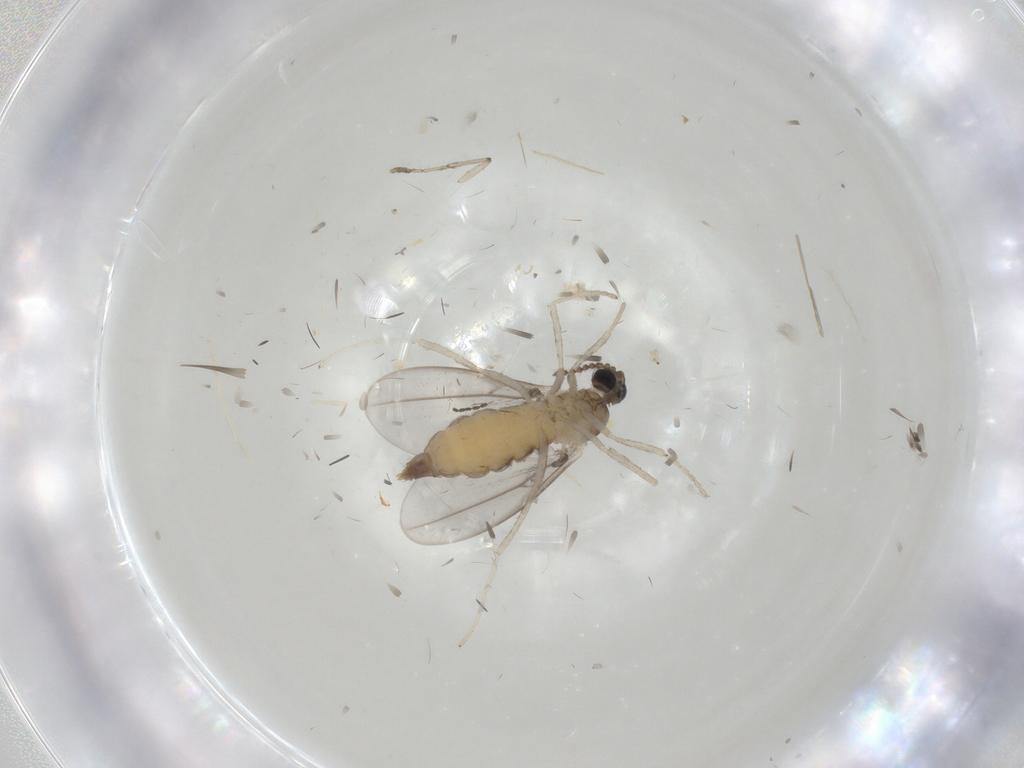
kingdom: Animalia
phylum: Arthropoda
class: Insecta
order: Diptera
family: Cecidomyiidae
